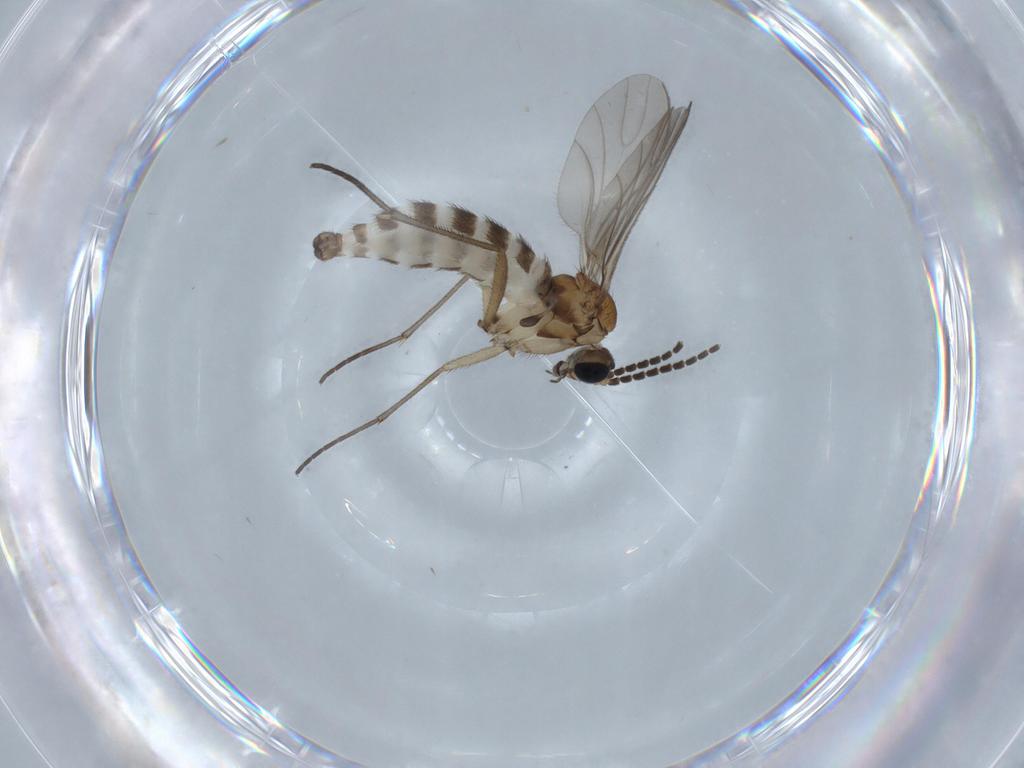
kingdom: Animalia
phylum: Arthropoda
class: Insecta
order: Diptera
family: Sciaridae
